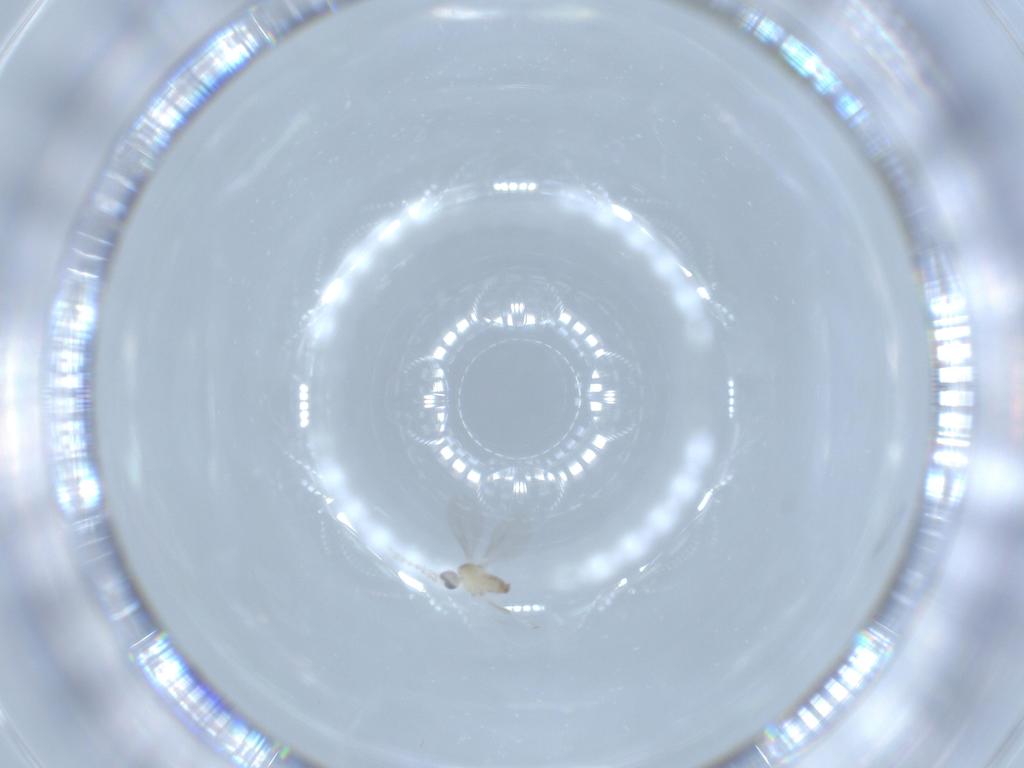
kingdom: Animalia
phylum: Arthropoda
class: Insecta
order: Diptera
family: Cecidomyiidae
